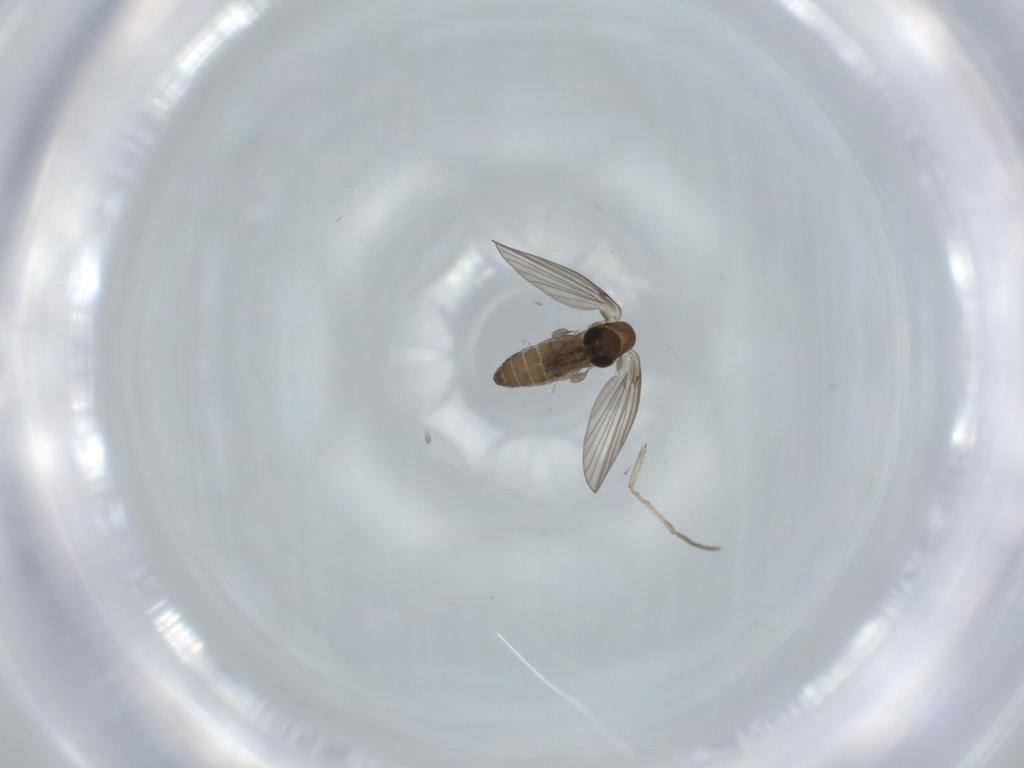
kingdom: Animalia
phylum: Arthropoda
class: Insecta
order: Diptera
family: Psychodidae
